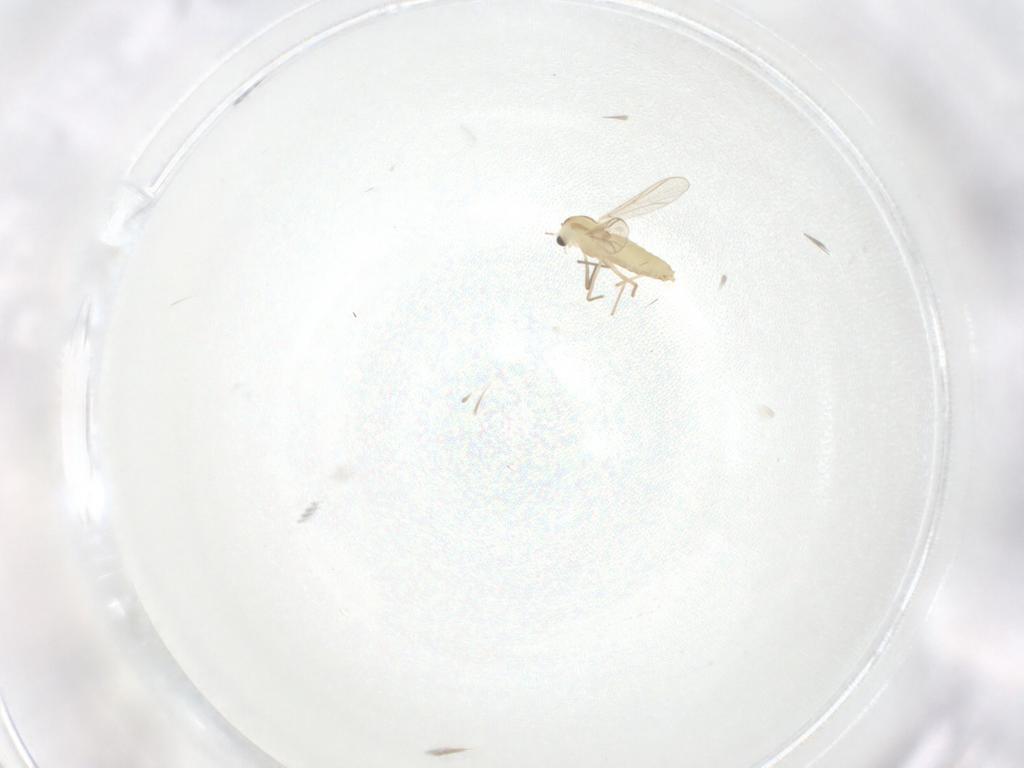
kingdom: Animalia
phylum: Arthropoda
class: Insecta
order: Diptera
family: Chironomidae
